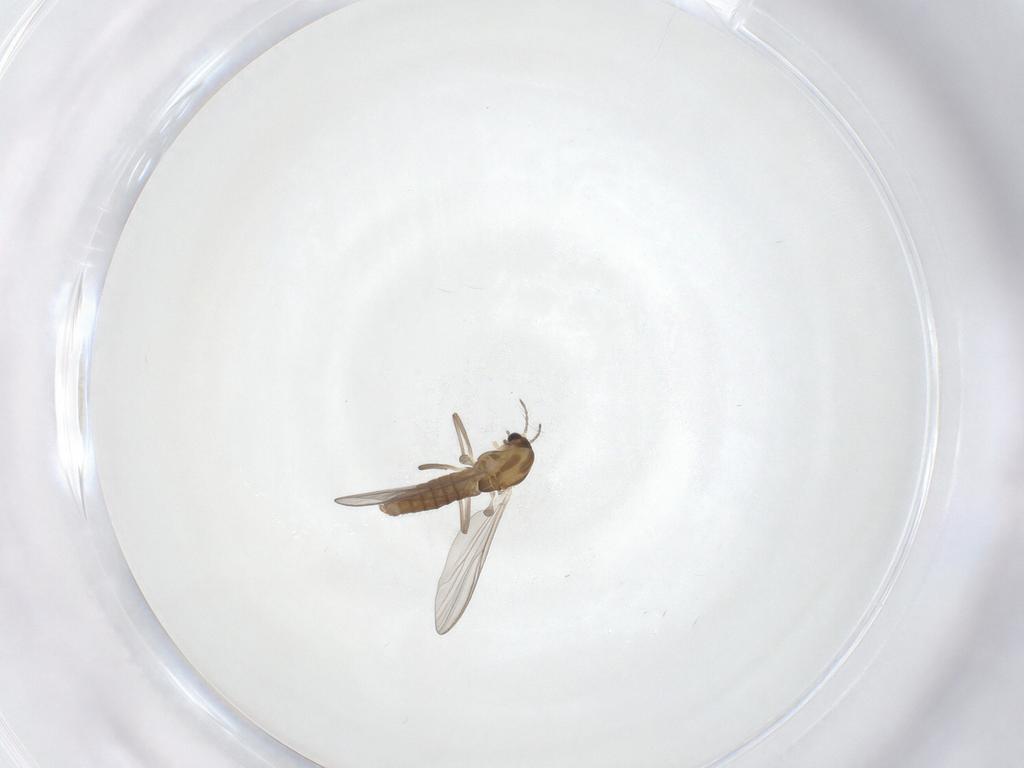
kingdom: Animalia
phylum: Arthropoda
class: Insecta
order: Diptera
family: Chironomidae
